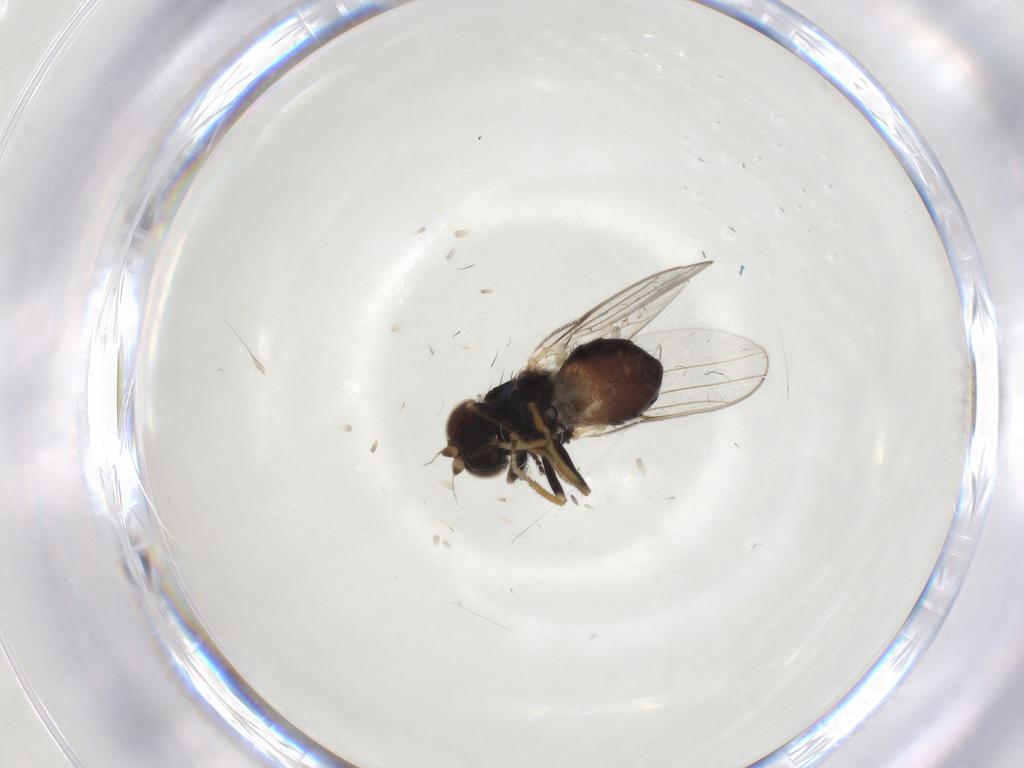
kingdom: Animalia
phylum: Arthropoda
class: Insecta
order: Diptera
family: Chloropidae
